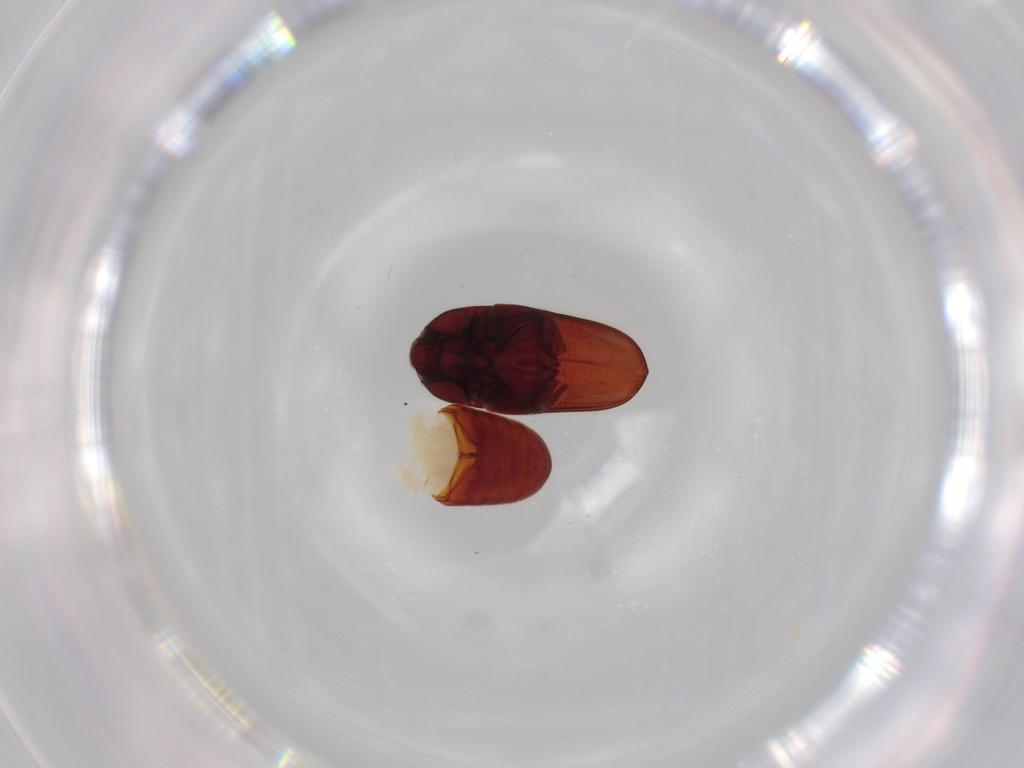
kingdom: Animalia
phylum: Arthropoda
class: Insecta
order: Coleoptera
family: Throscidae
